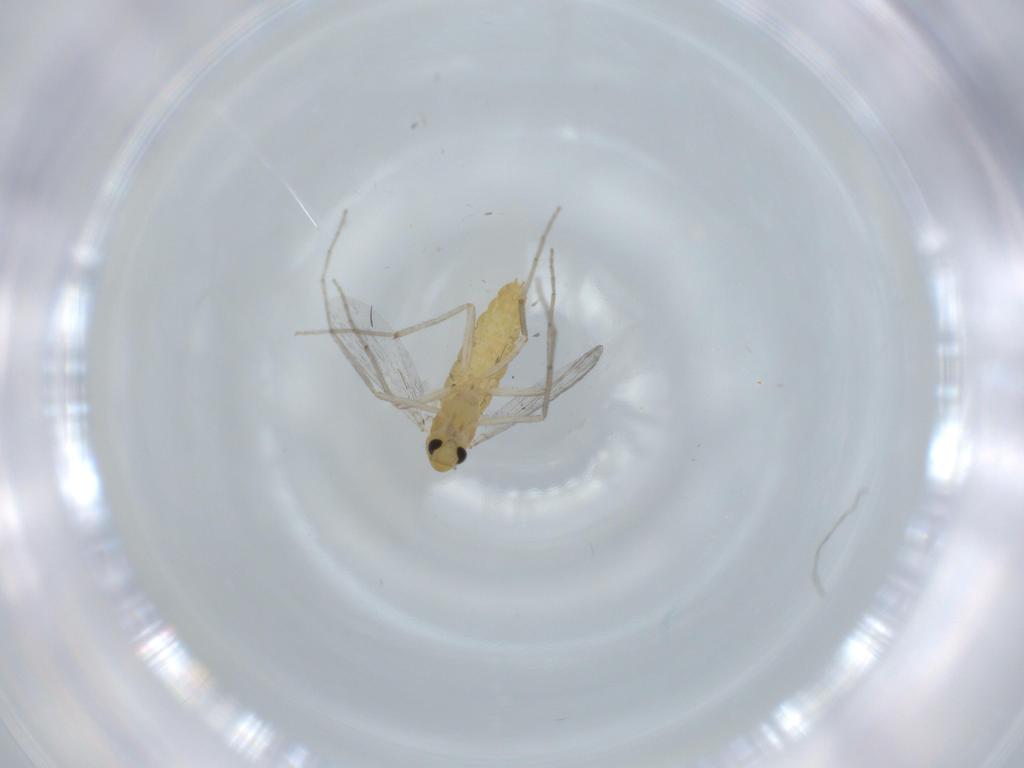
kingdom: Animalia
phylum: Arthropoda
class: Insecta
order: Diptera
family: Chironomidae
